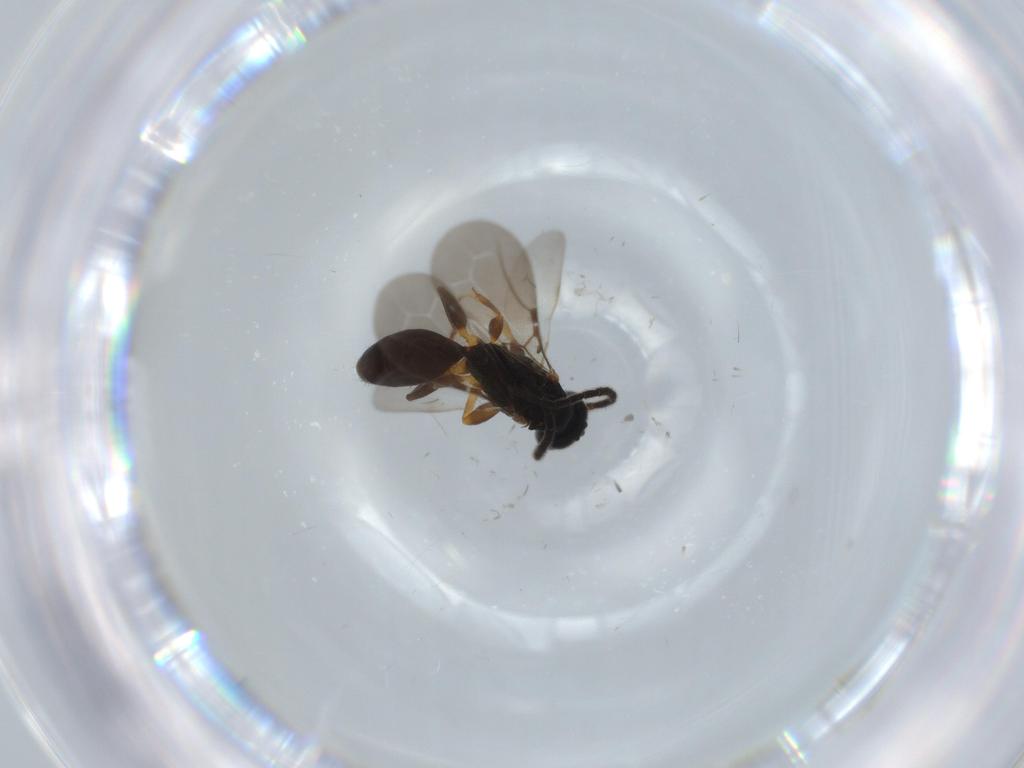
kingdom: Animalia
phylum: Arthropoda
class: Insecta
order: Hymenoptera
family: Bethylidae
